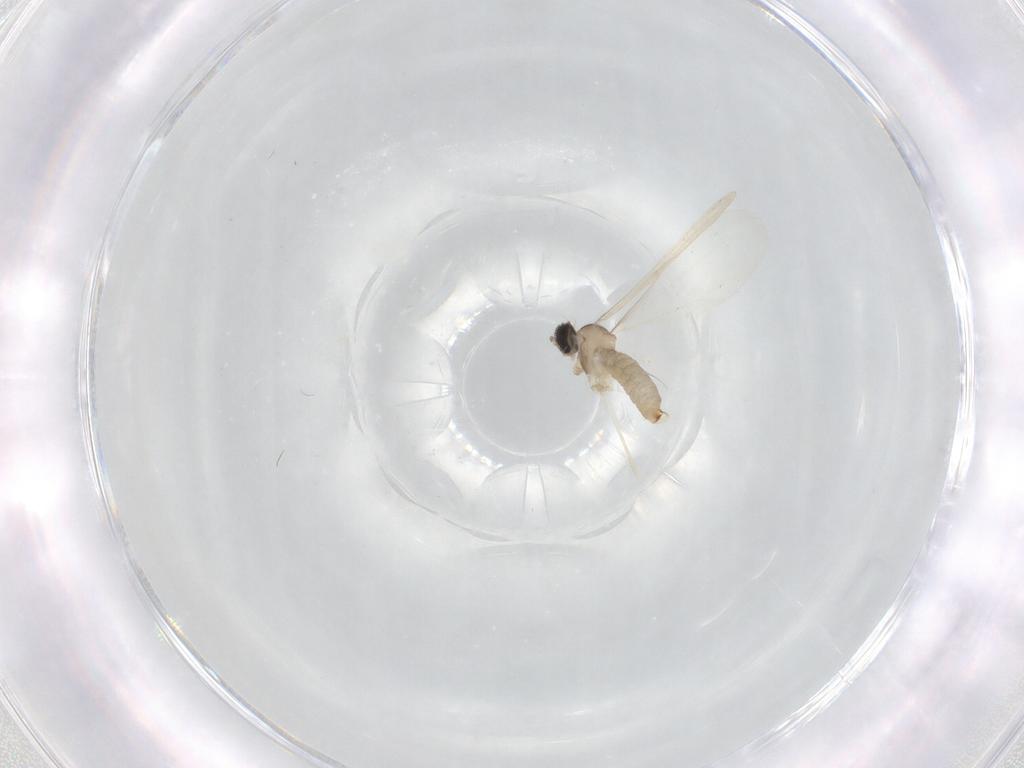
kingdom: Animalia
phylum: Arthropoda
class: Insecta
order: Diptera
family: Cecidomyiidae
